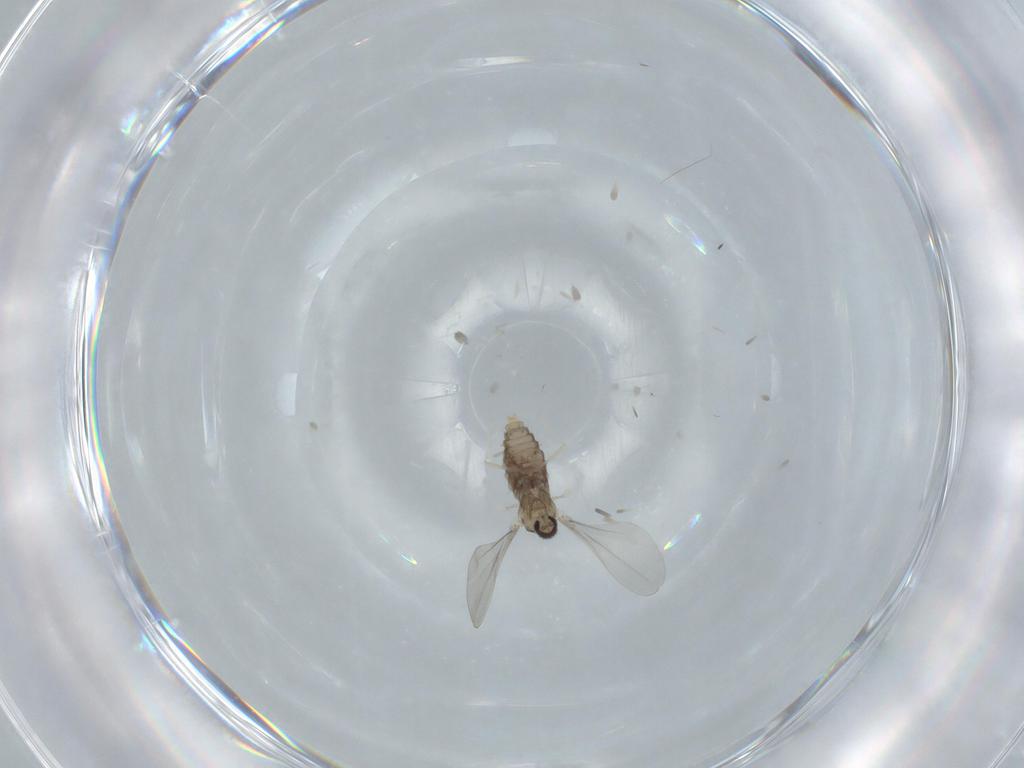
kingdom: Animalia
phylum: Arthropoda
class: Insecta
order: Diptera
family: Cecidomyiidae
